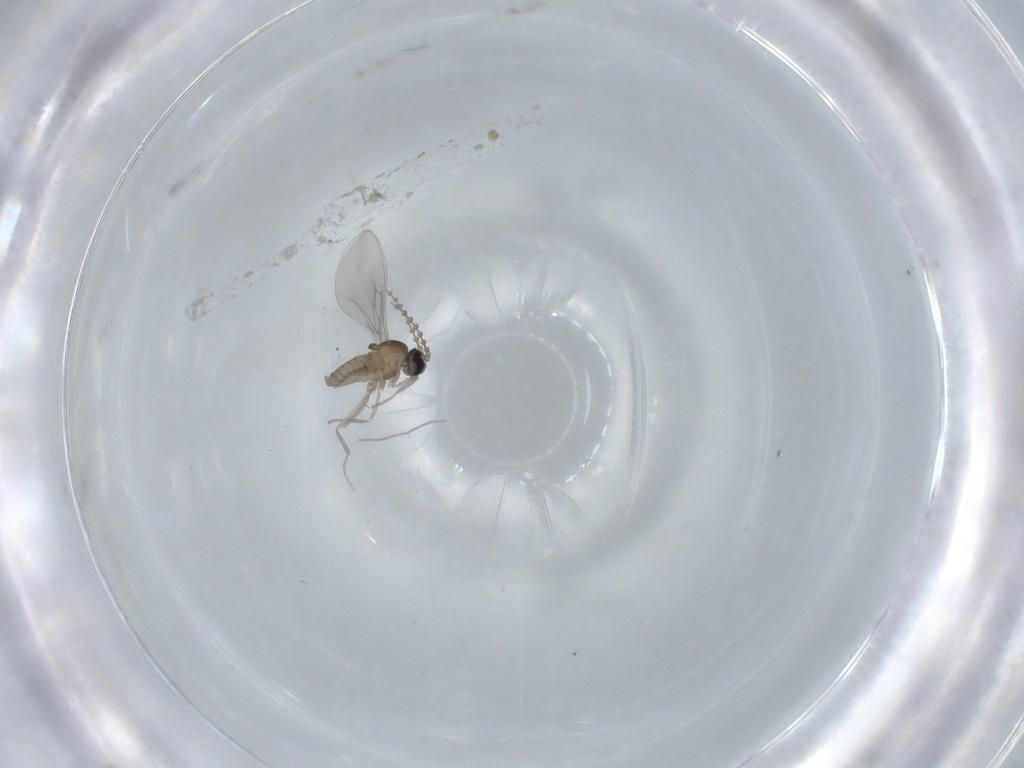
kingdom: Animalia
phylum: Arthropoda
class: Insecta
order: Diptera
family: Cecidomyiidae
